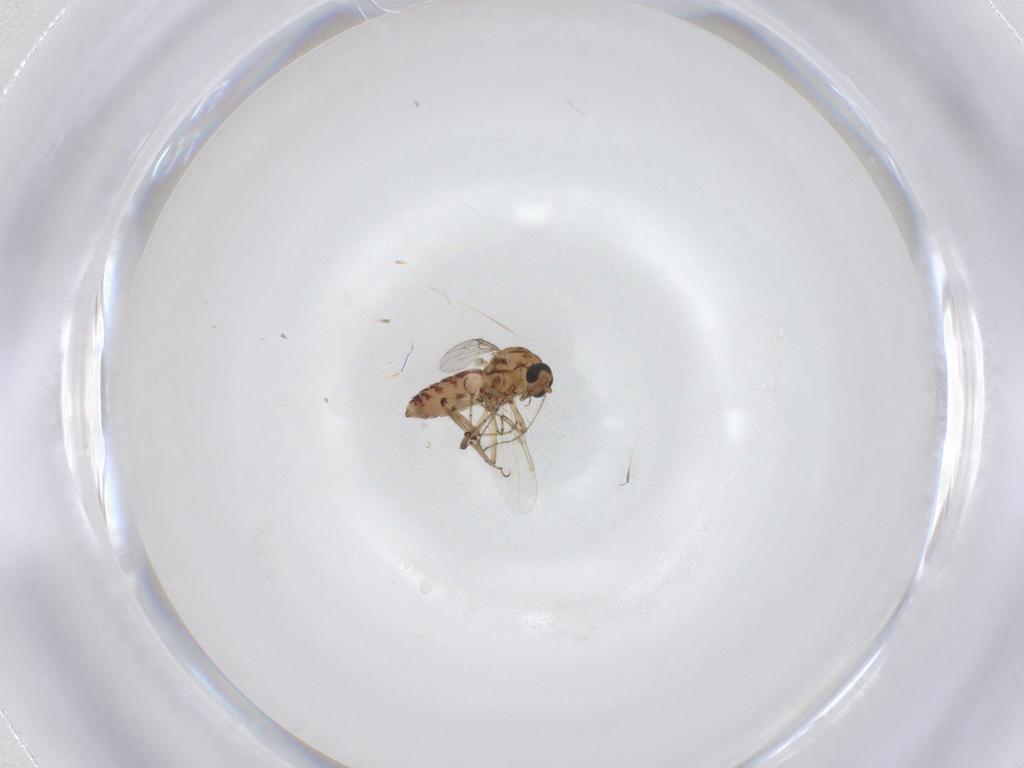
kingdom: Animalia
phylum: Arthropoda
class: Insecta
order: Diptera
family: Ceratopogonidae
